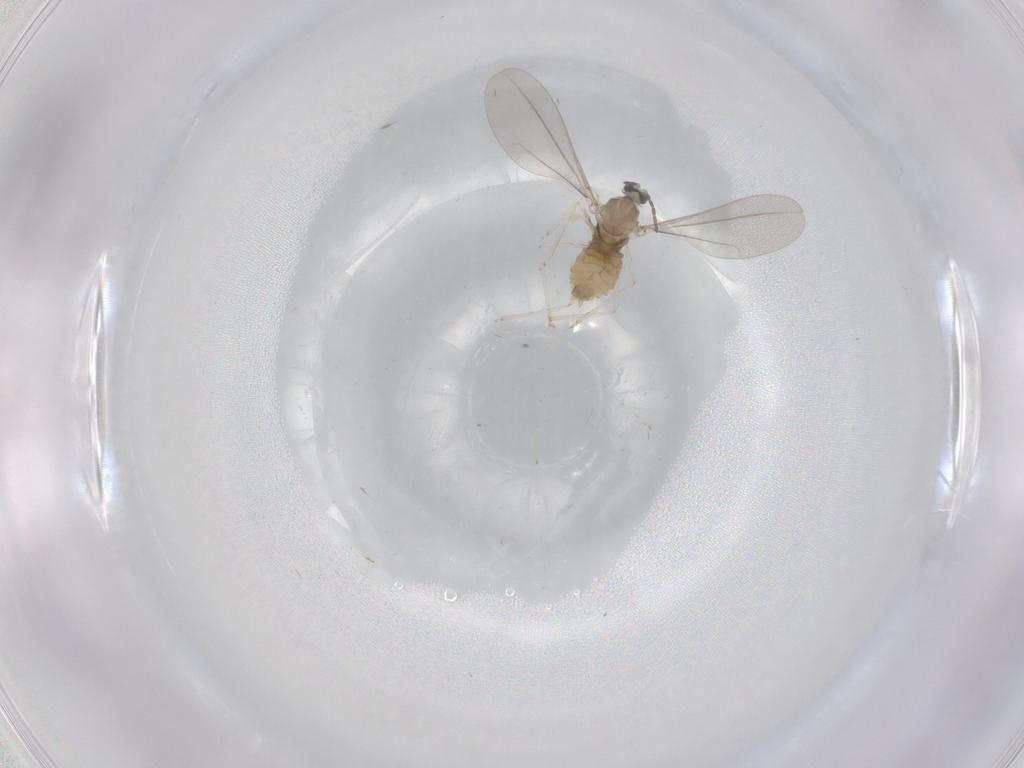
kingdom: Animalia
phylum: Arthropoda
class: Insecta
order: Diptera
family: Cecidomyiidae
